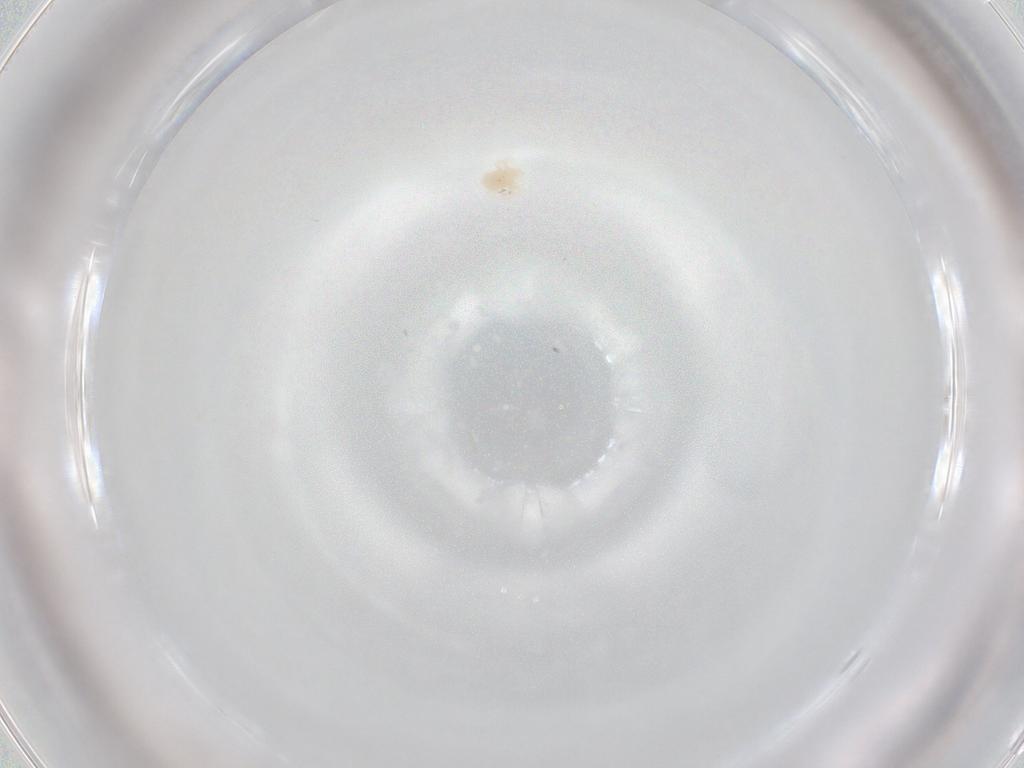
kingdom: Animalia
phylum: Arthropoda
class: Arachnida
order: Trombidiformes
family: Anystidae
